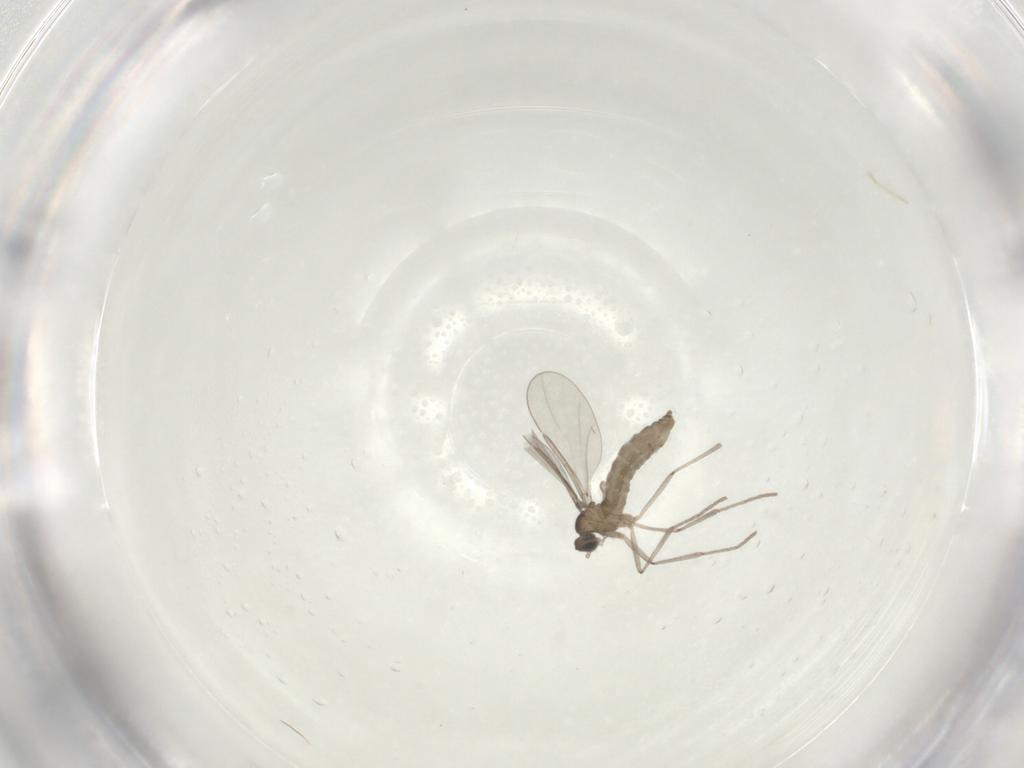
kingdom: Animalia
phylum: Arthropoda
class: Insecta
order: Diptera
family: Cecidomyiidae
